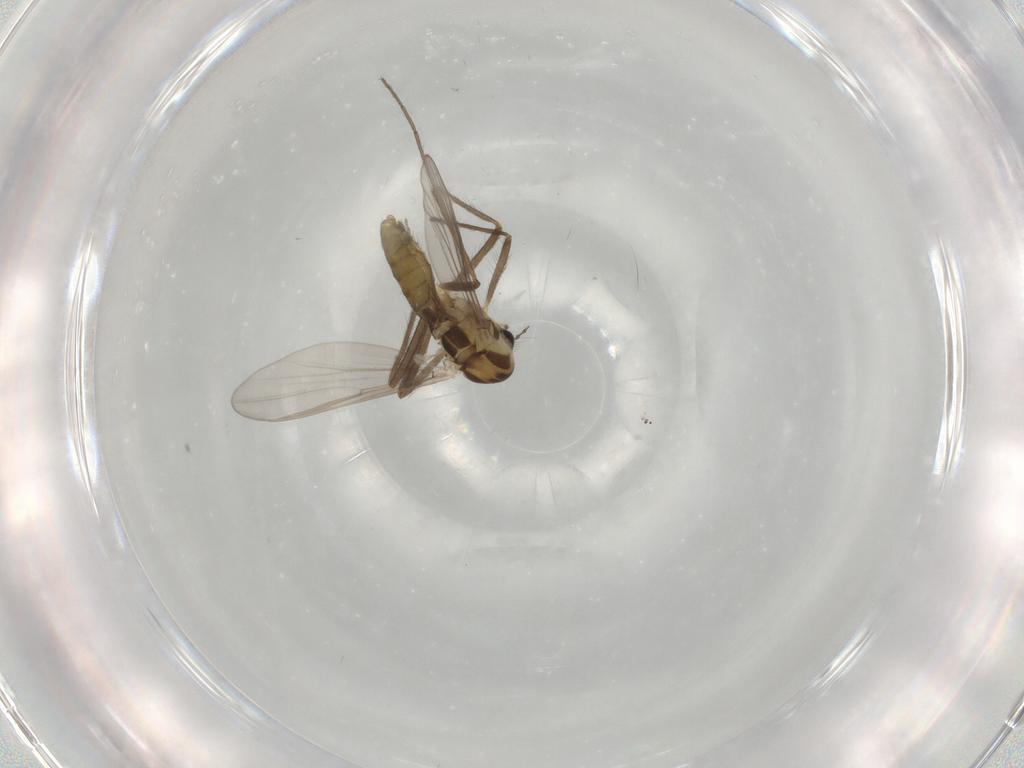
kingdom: Animalia
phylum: Arthropoda
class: Insecta
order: Diptera
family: Chironomidae
